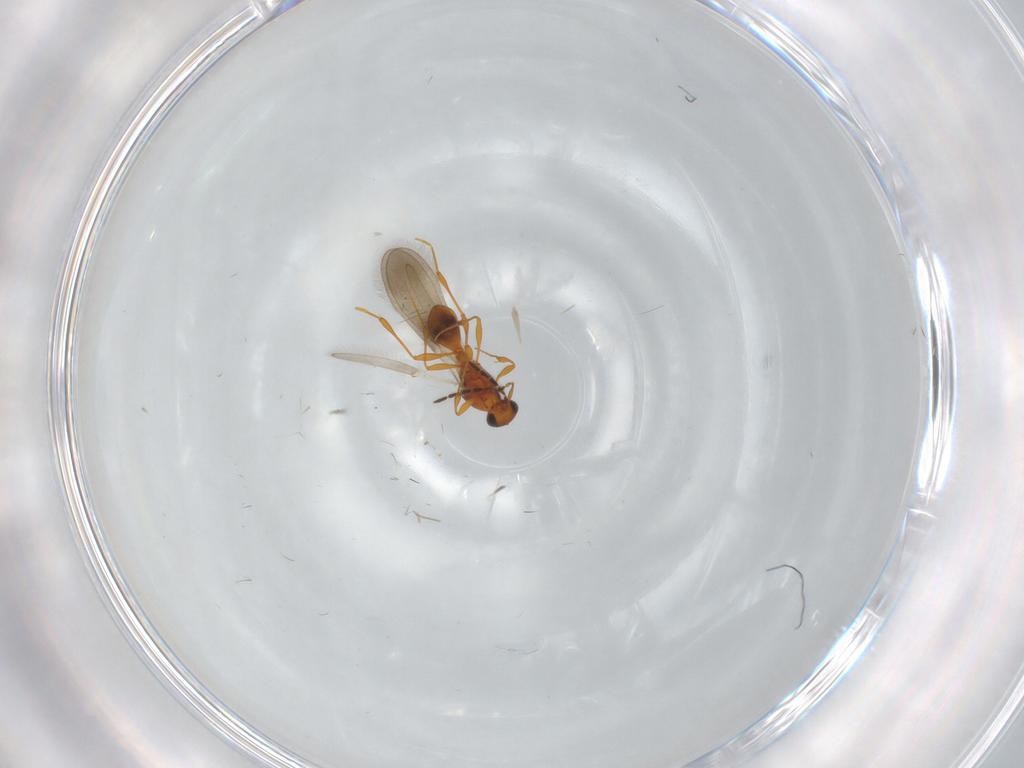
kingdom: Animalia
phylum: Arthropoda
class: Insecta
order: Hymenoptera
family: Platygastridae
